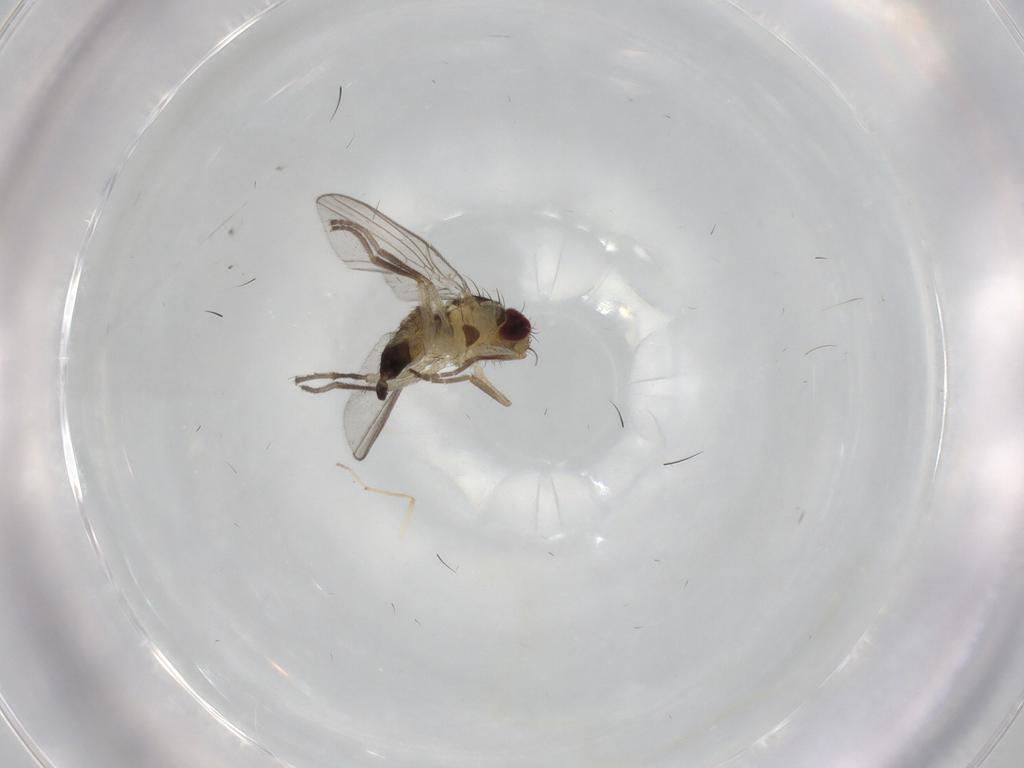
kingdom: Animalia
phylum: Arthropoda
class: Insecta
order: Diptera
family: Agromyzidae
